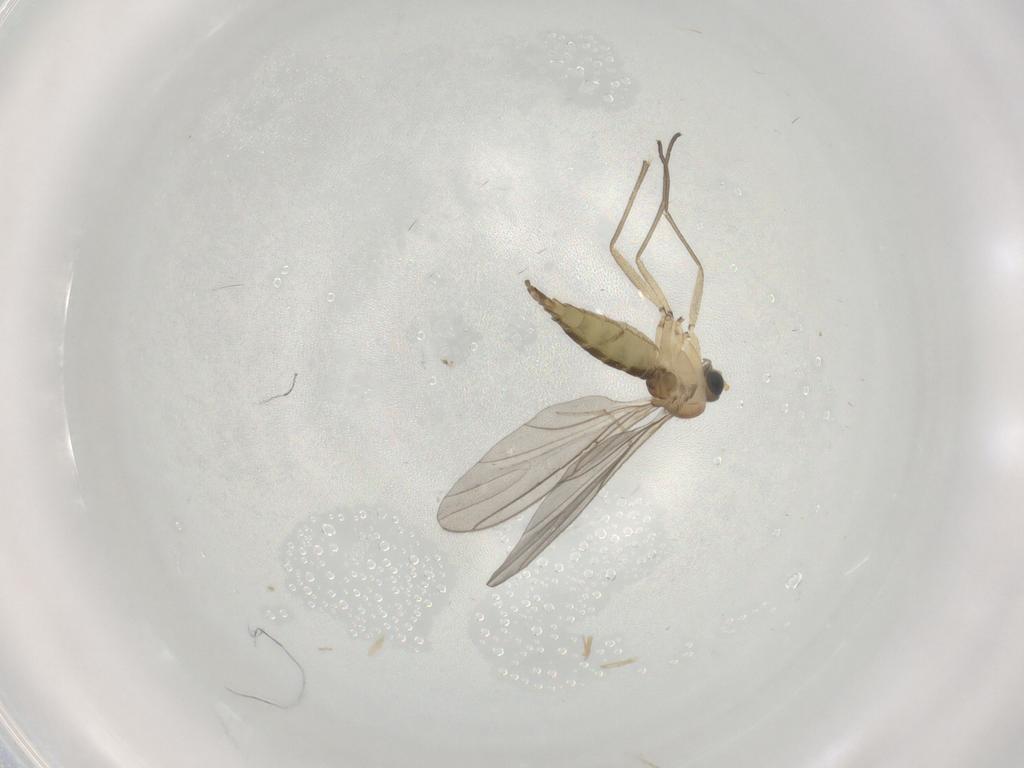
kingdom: Animalia
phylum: Arthropoda
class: Insecta
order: Diptera
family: Sciaridae
